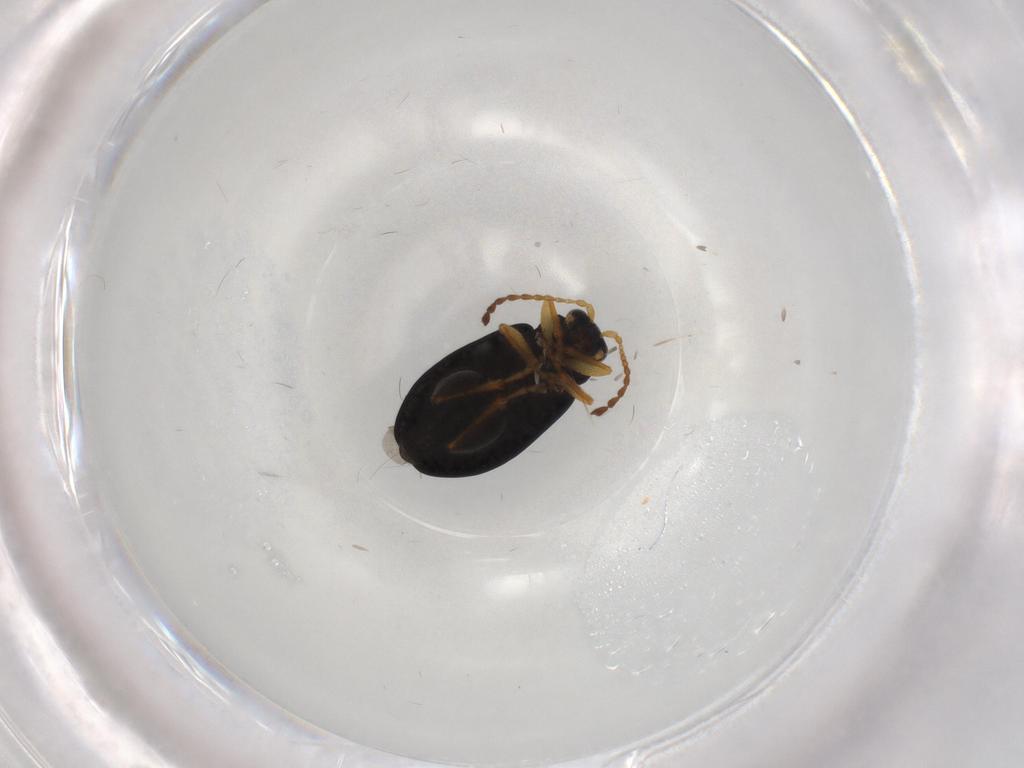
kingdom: Animalia
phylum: Arthropoda
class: Insecta
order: Coleoptera
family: Chrysomelidae
